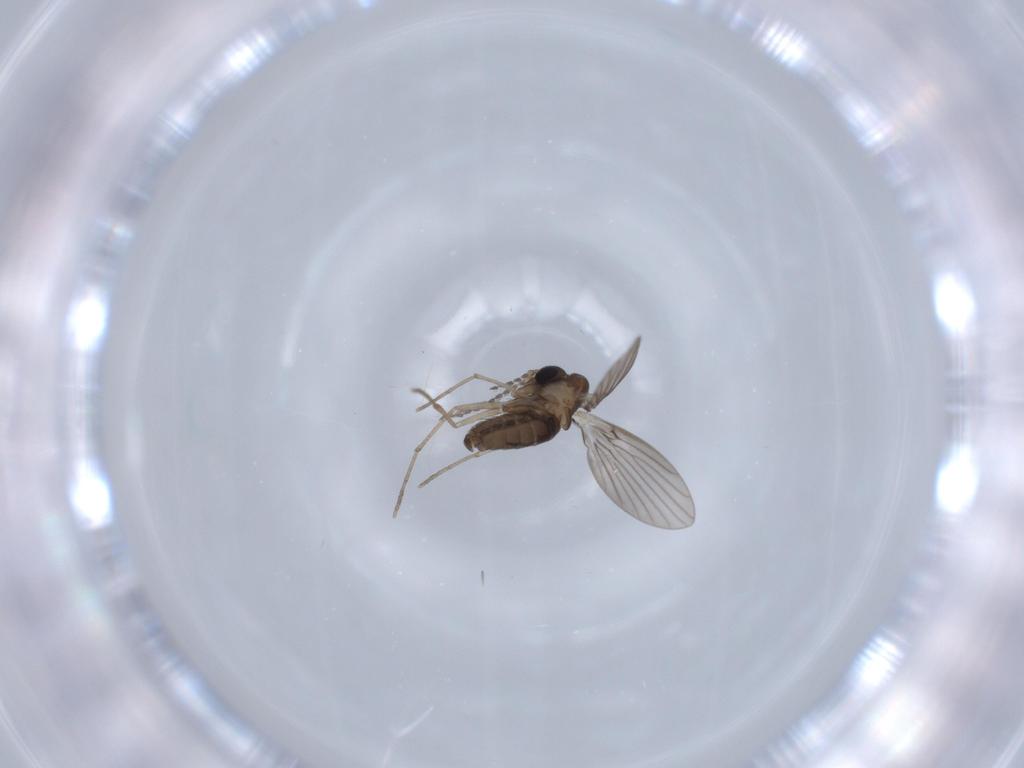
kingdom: Animalia
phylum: Arthropoda
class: Insecta
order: Diptera
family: Psychodidae
